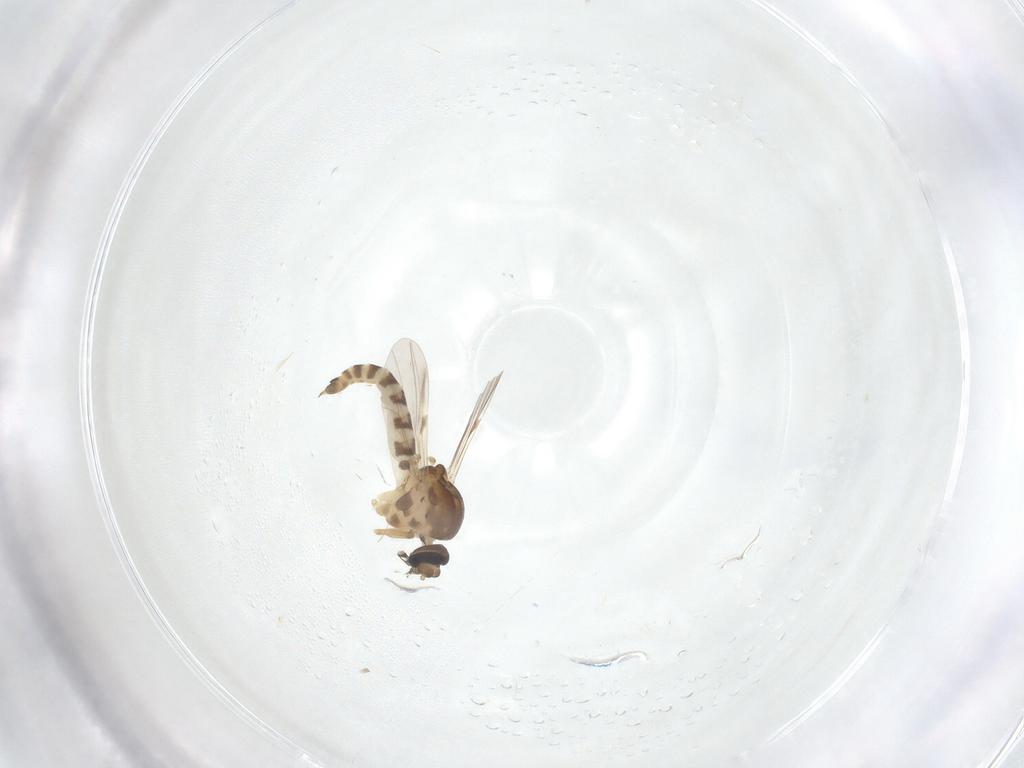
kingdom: Animalia
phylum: Arthropoda
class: Insecta
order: Diptera
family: Ceratopogonidae
